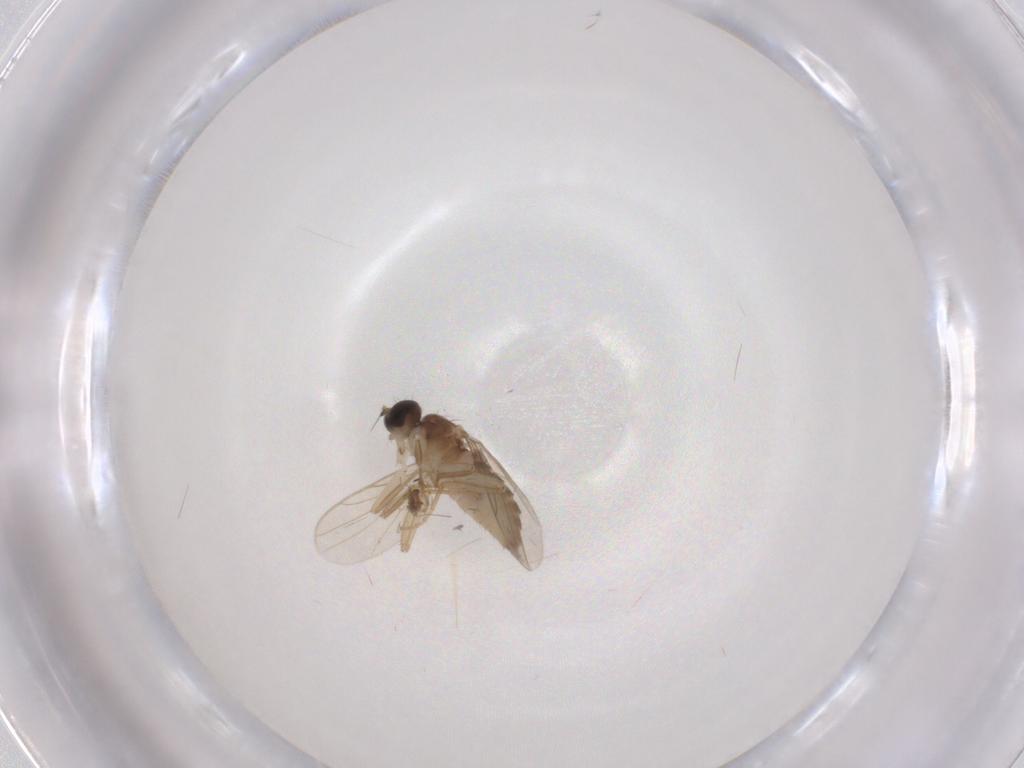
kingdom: Animalia
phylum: Arthropoda
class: Insecta
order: Diptera
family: Hybotidae
